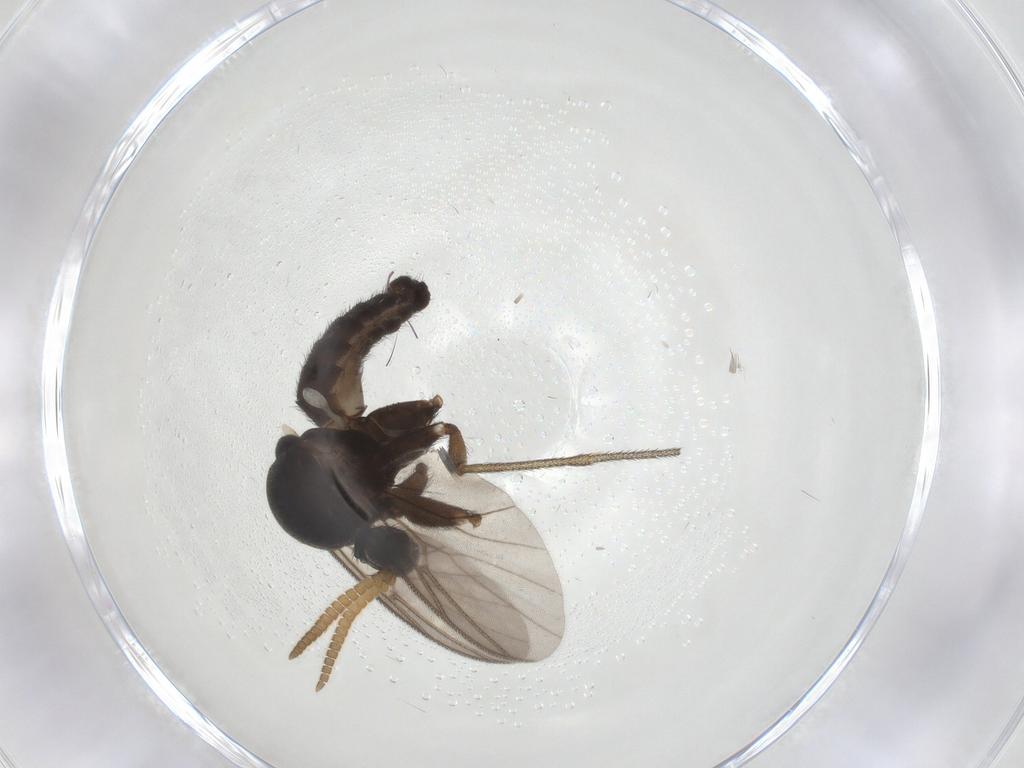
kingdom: Animalia
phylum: Arthropoda
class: Insecta
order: Diptera
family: Mycetophilidae
